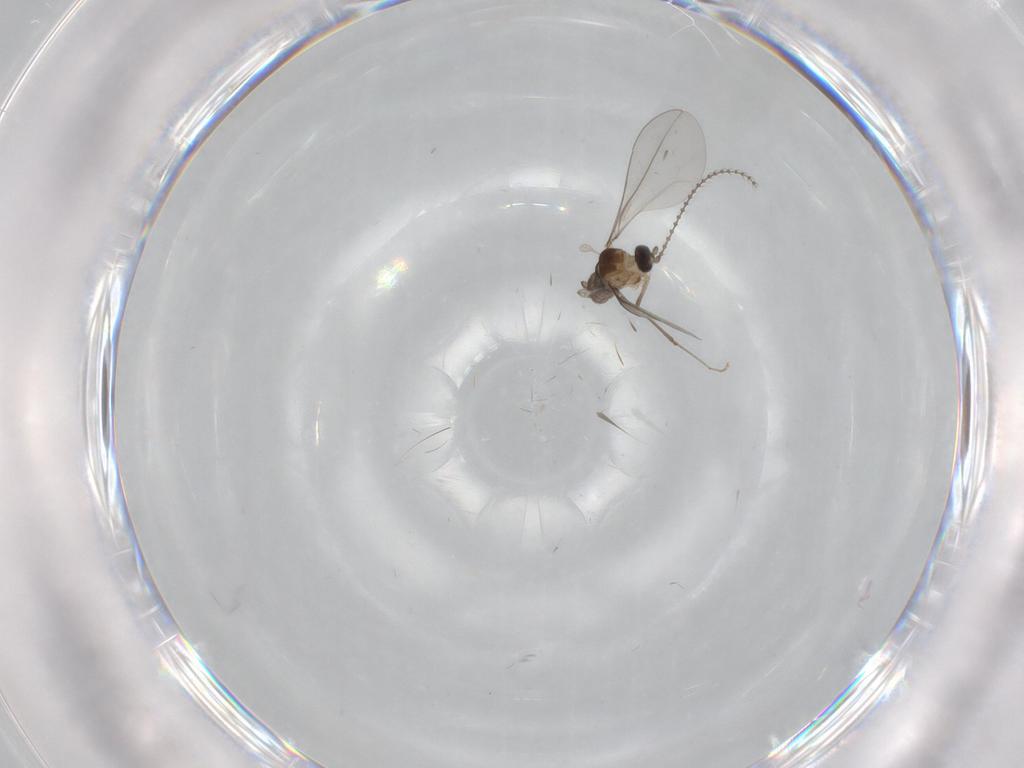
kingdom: Animalia
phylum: Arthropoda
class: Insecta
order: Diptera
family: Cecidomyiidae
